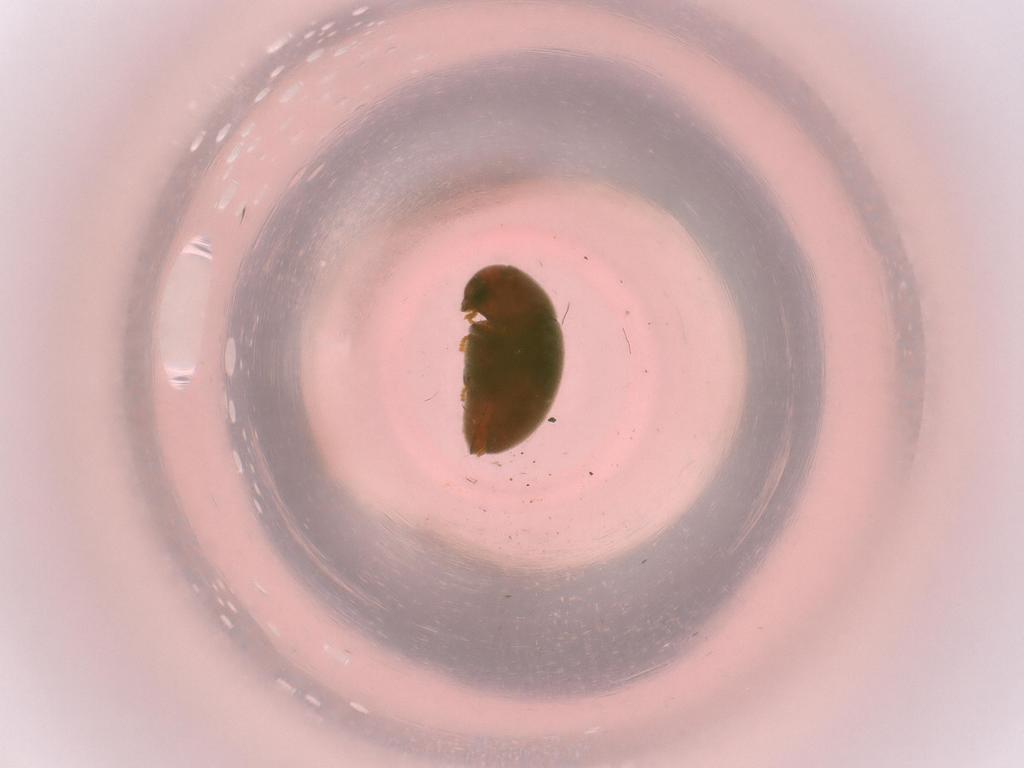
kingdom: Animalia
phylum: Arthropoda
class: Insecta
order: Coleoptera
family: Ptinidae
